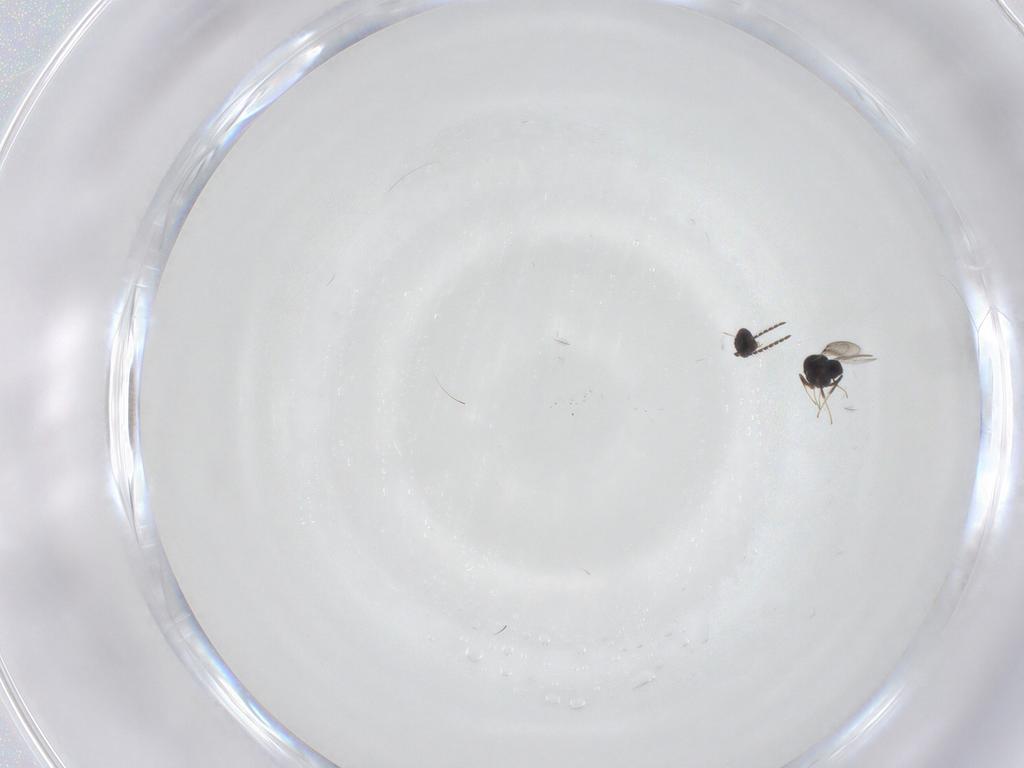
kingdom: Animalia
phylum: Arthropoda
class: Insecta
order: Hymenoptera
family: Ceraphronidae
